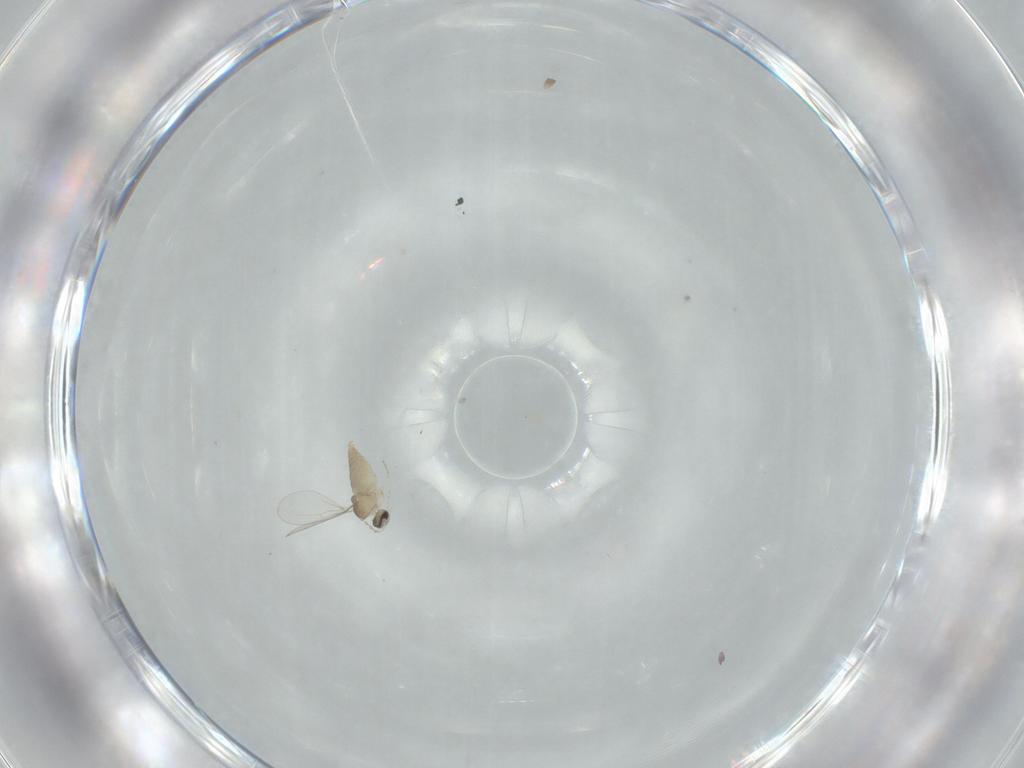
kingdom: Animalia
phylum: Arthropoda
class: Insecta
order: Diptera
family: Cecidomyiidae
